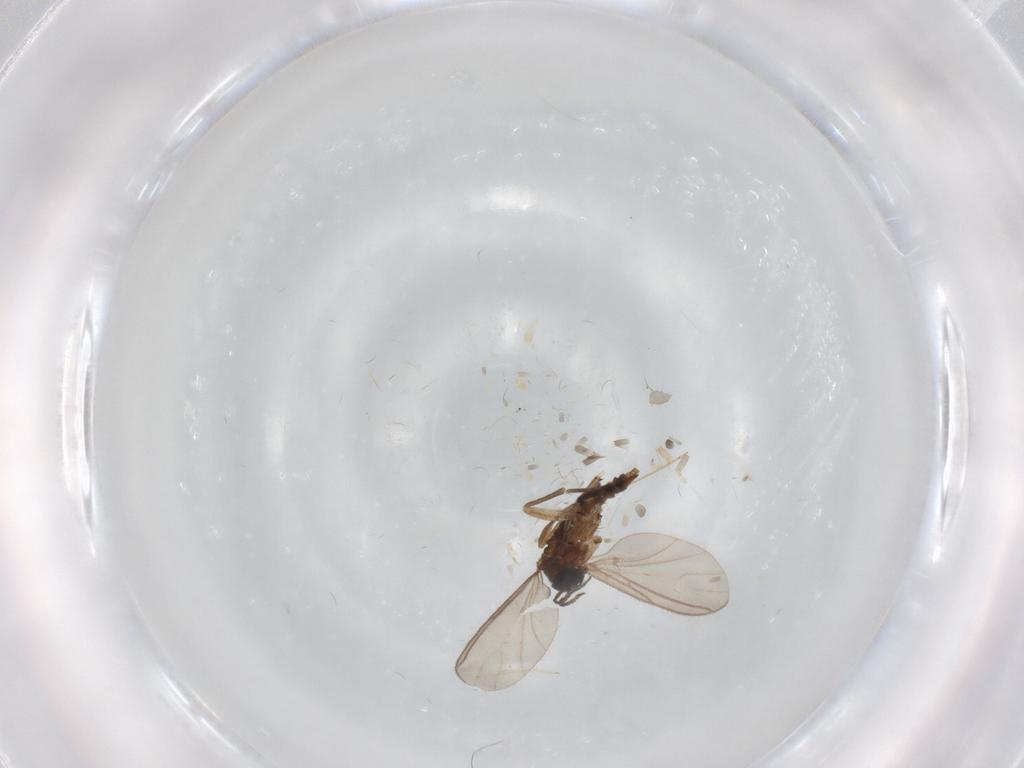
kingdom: Animalia
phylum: Arthropoda
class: Insecta
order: Diptera
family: Sciaridae
